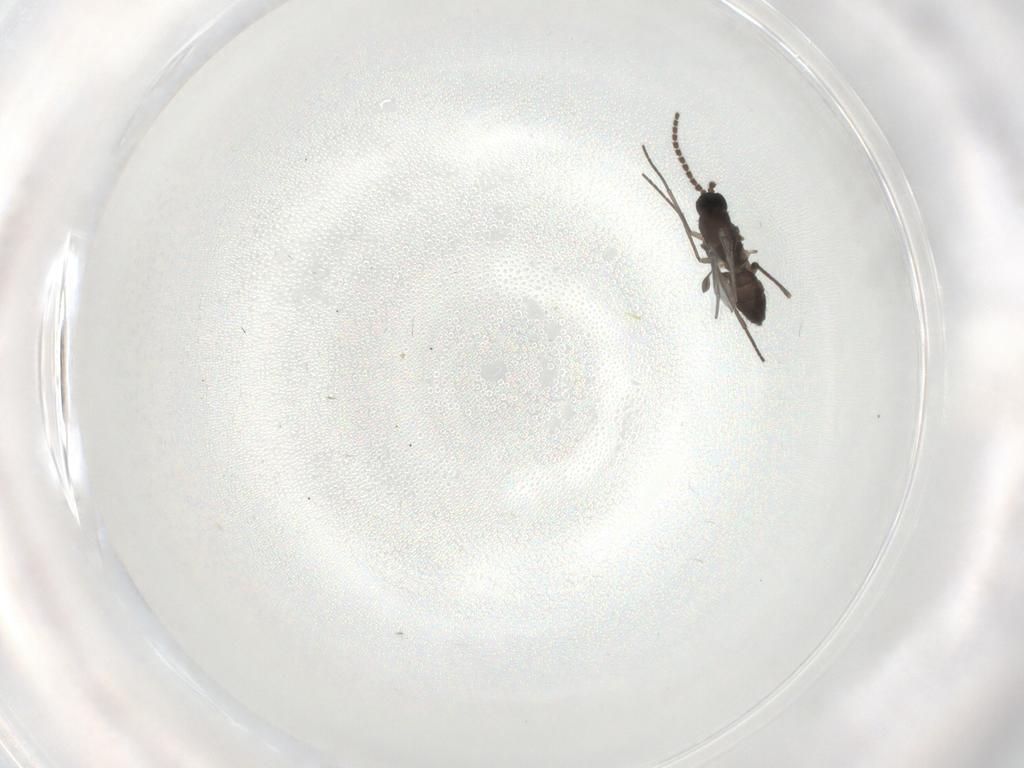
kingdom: Animalia
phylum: Arthropoda
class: Insecta
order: Diptera
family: Phoridae
